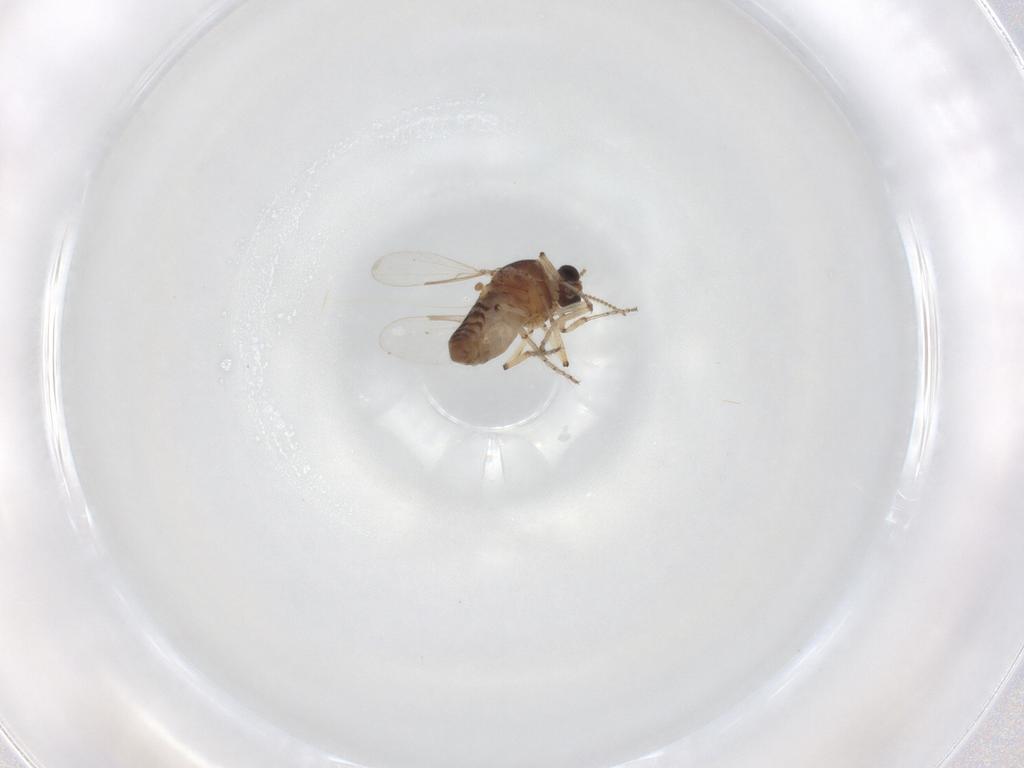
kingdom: Animalia
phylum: Arthropoda
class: Insecta
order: Diptera
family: Ceratopogonidae
